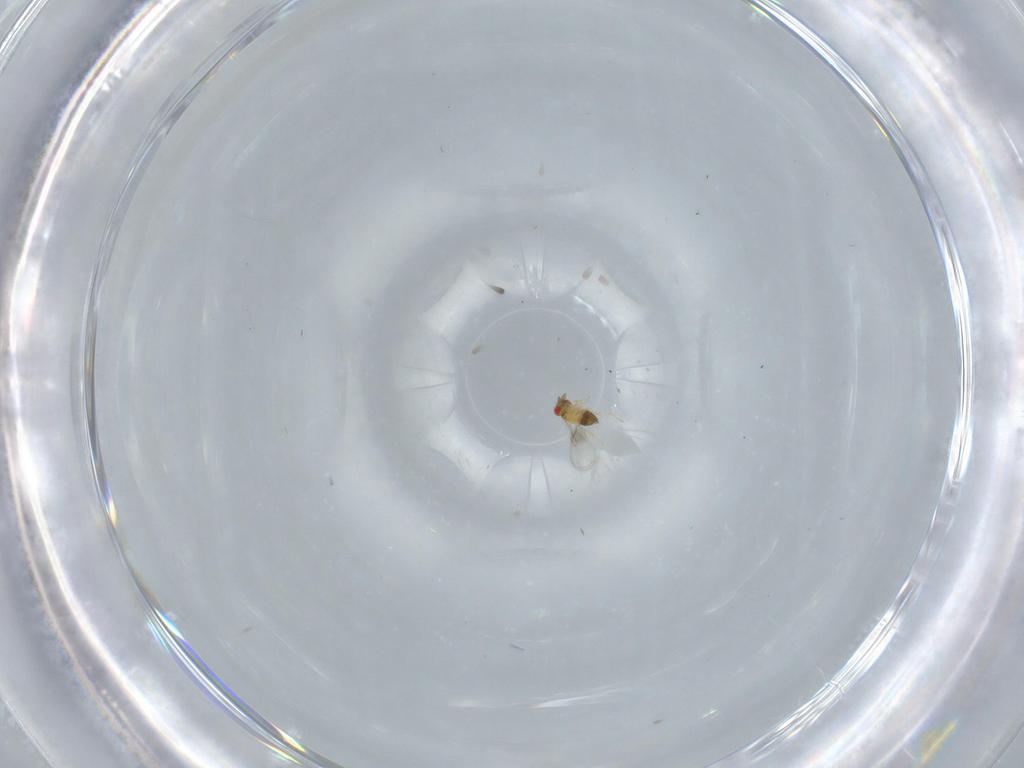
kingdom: Animalia
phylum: Arthropoda
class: Insecta
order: Hymenoptera
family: Trichogrammatidae
